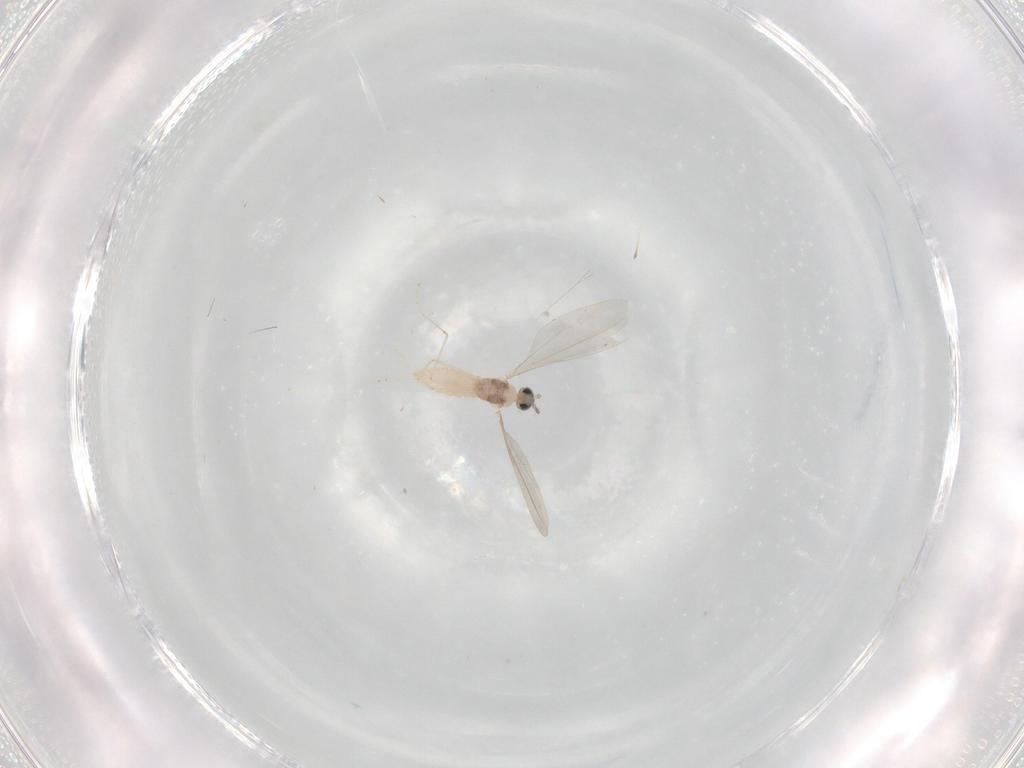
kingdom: Animalia
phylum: Arthropoda
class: Insecta
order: Diptera
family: Cecidomyiidae
